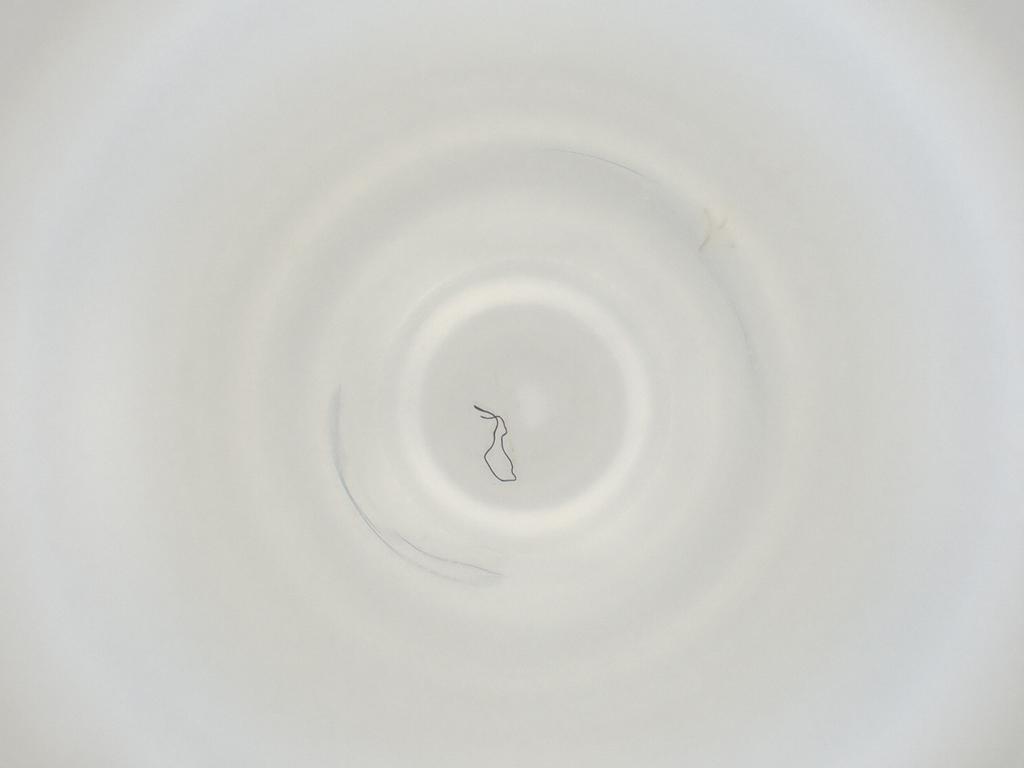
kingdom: Animalia
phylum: Arthropoda
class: Insecta
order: Diptera
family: Cecidomyiidae
